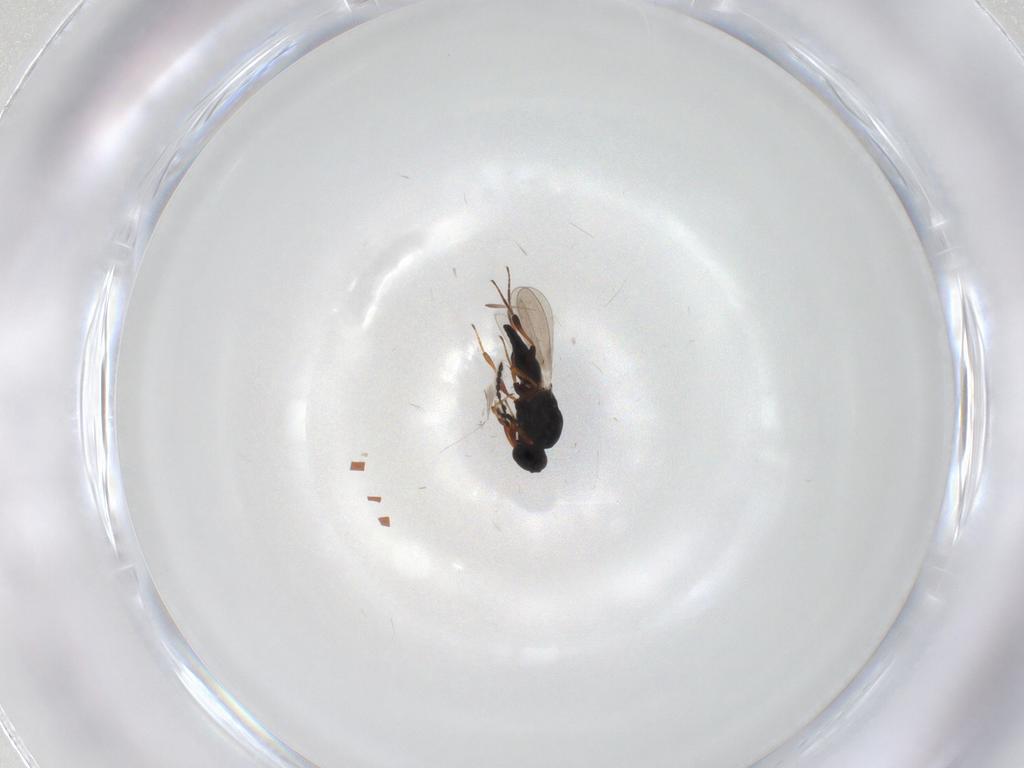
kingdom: Animalia
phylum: Arthropoda
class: Insecta
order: Hymenoptera
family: Platygastridae
